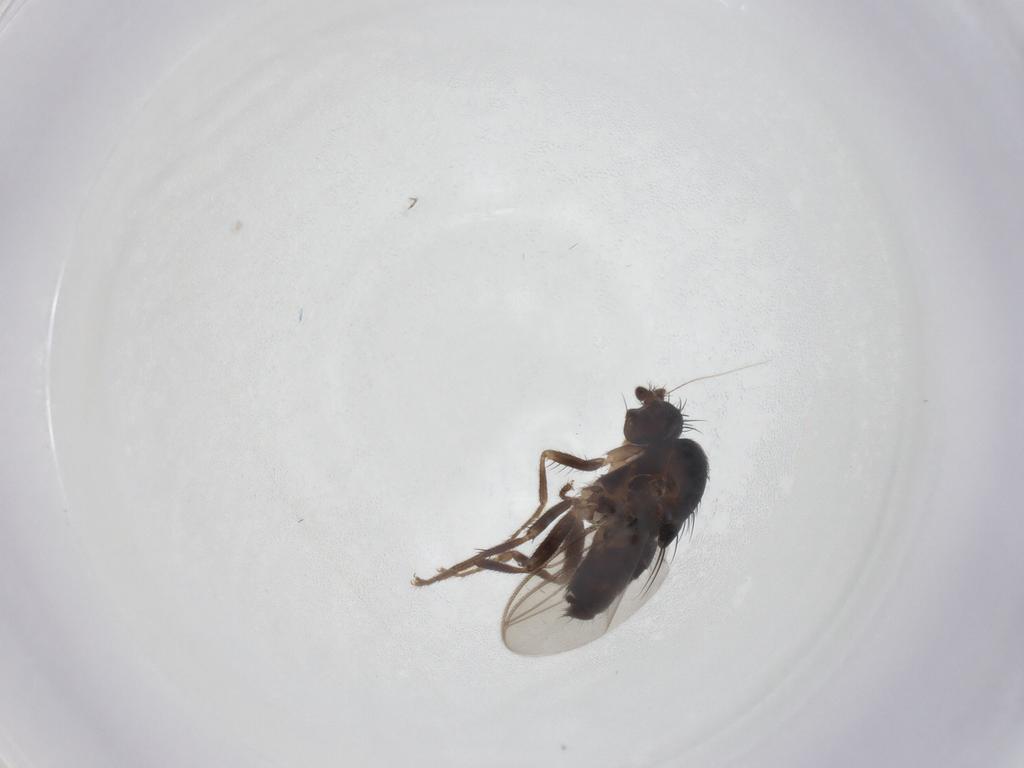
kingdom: Animalia
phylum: Arthropoda
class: Insecta
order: Diptera
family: Sphaeroceridae
